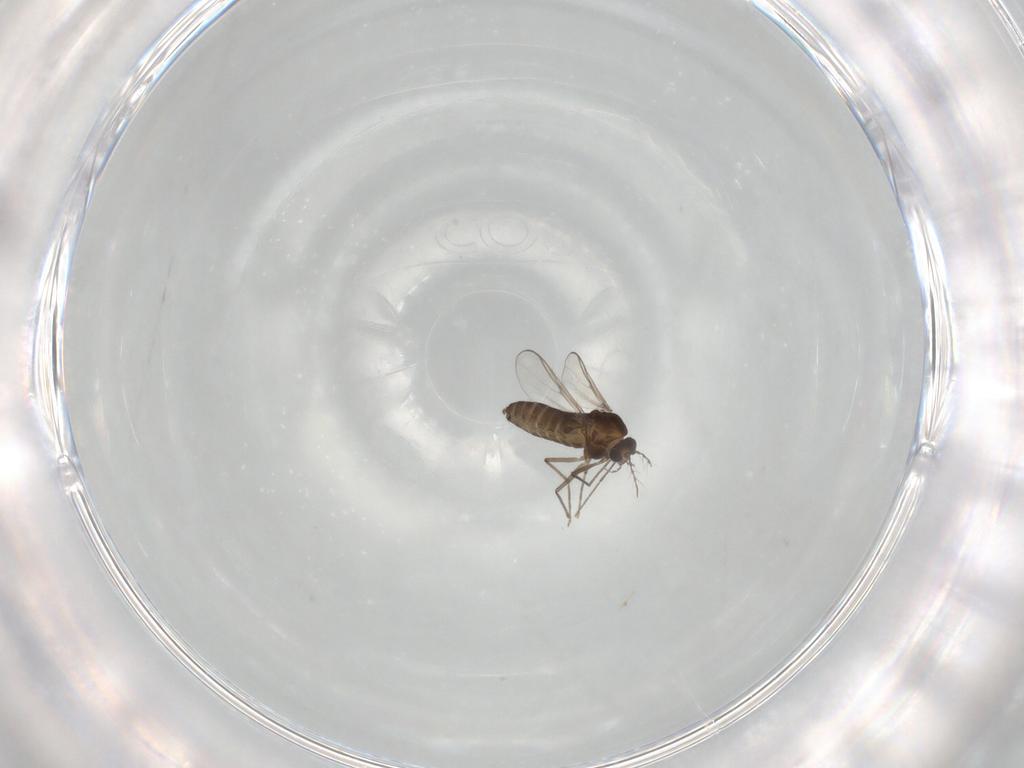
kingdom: Animalia
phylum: Arthropoda
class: Insecta
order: Diptera
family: Chironomidae
